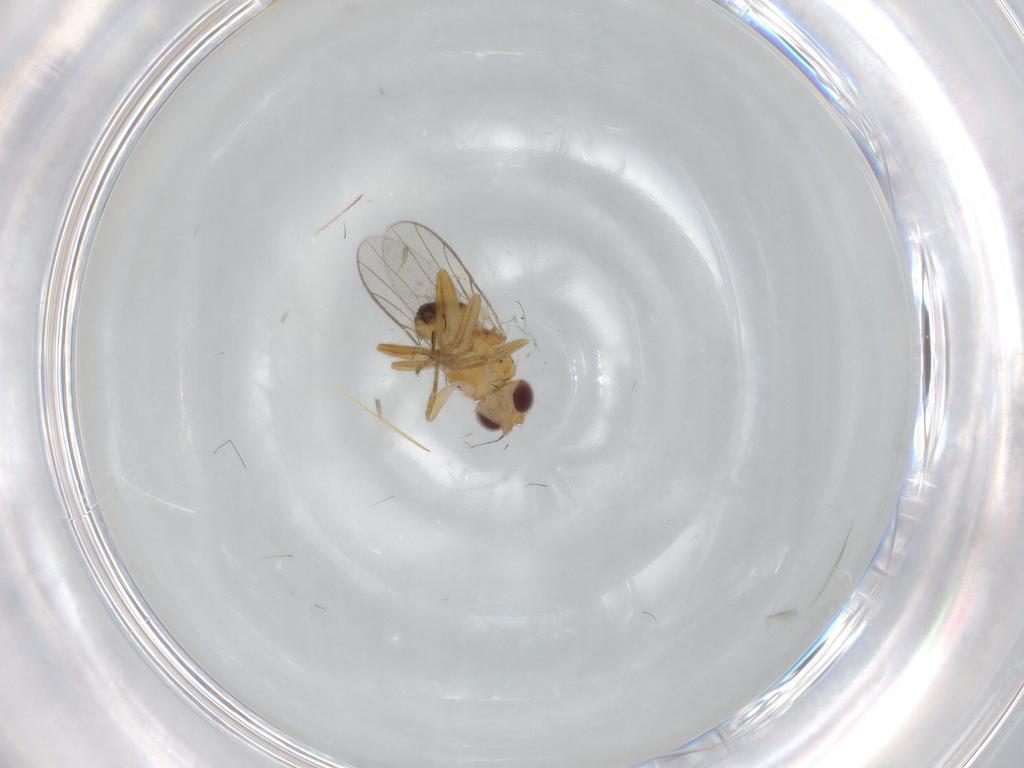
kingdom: Animalia
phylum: Arthropoda
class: Insecta
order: Diptera
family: Chloropidae
